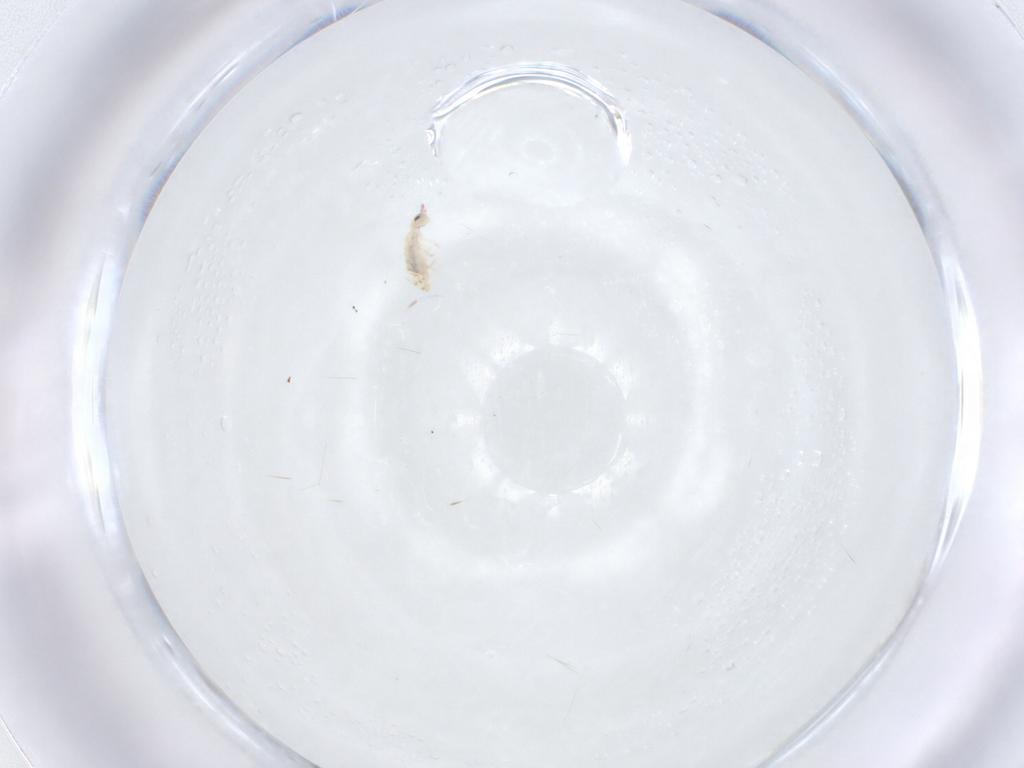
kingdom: Animalia
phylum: Arthropoda
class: Collembola
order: Entomobryomorpha
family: Entomobryidae
